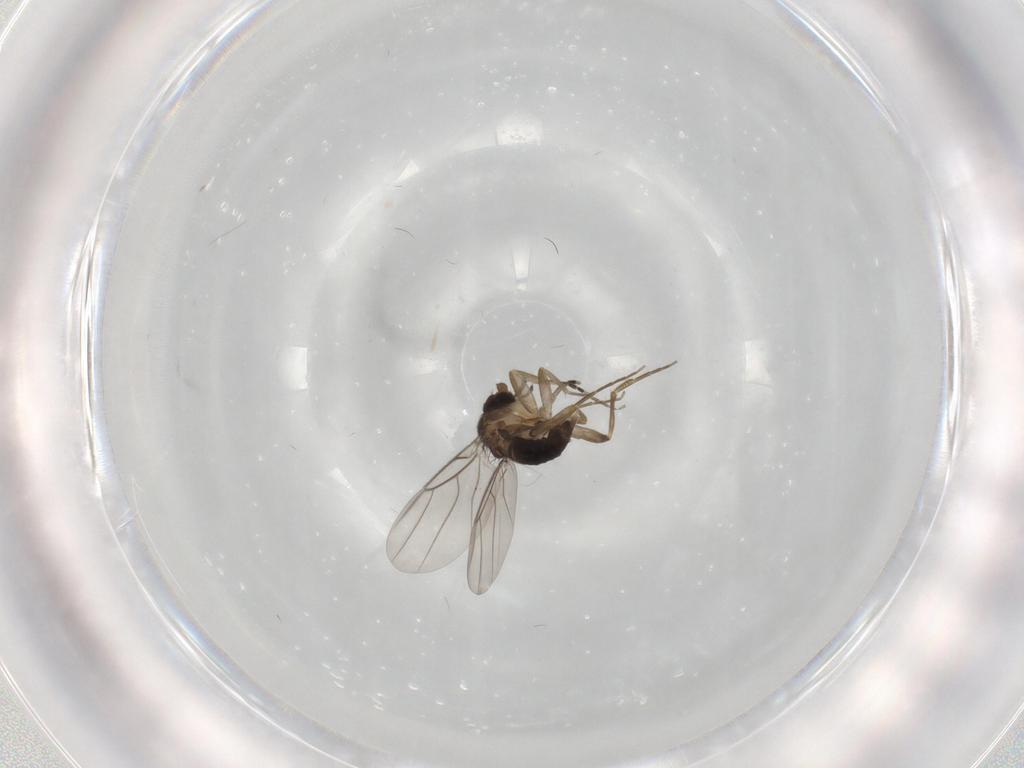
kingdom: Animalia
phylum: Arthropoda
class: Insecta
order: Diptera
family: Phoridae
